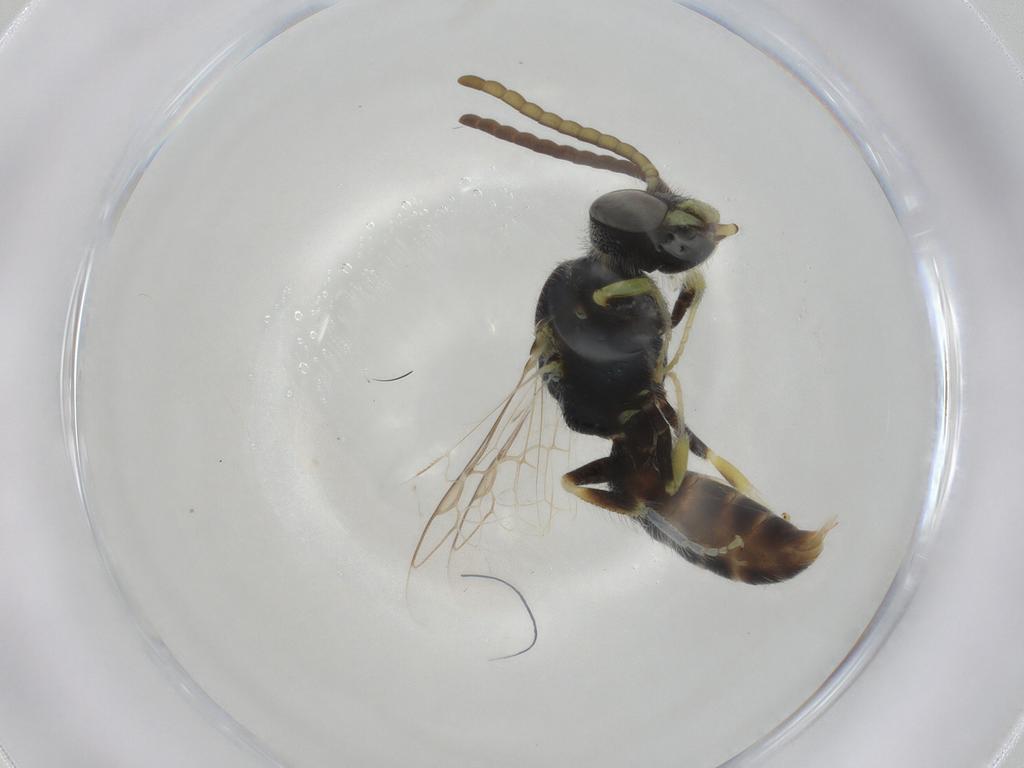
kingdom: Animalia
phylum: Arthropoda
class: Insecta
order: Hymenoptera
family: Halictidae
